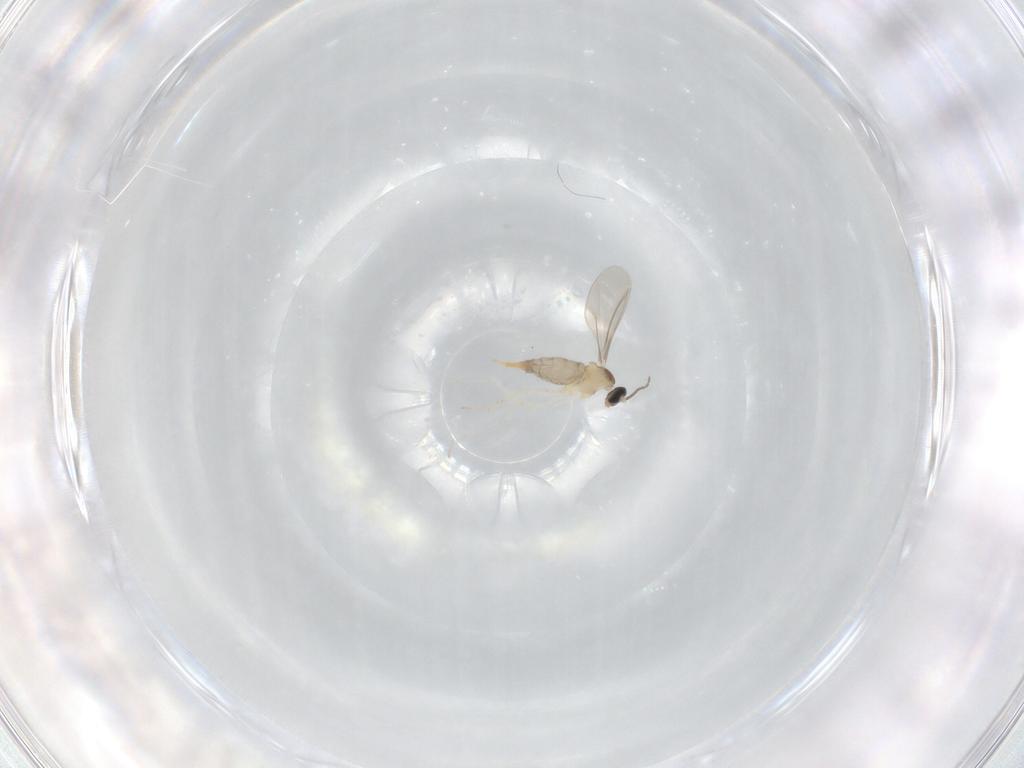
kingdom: Animalia
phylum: Arthropoda
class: Insecta
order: Diptera
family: Cecidomyiidae
